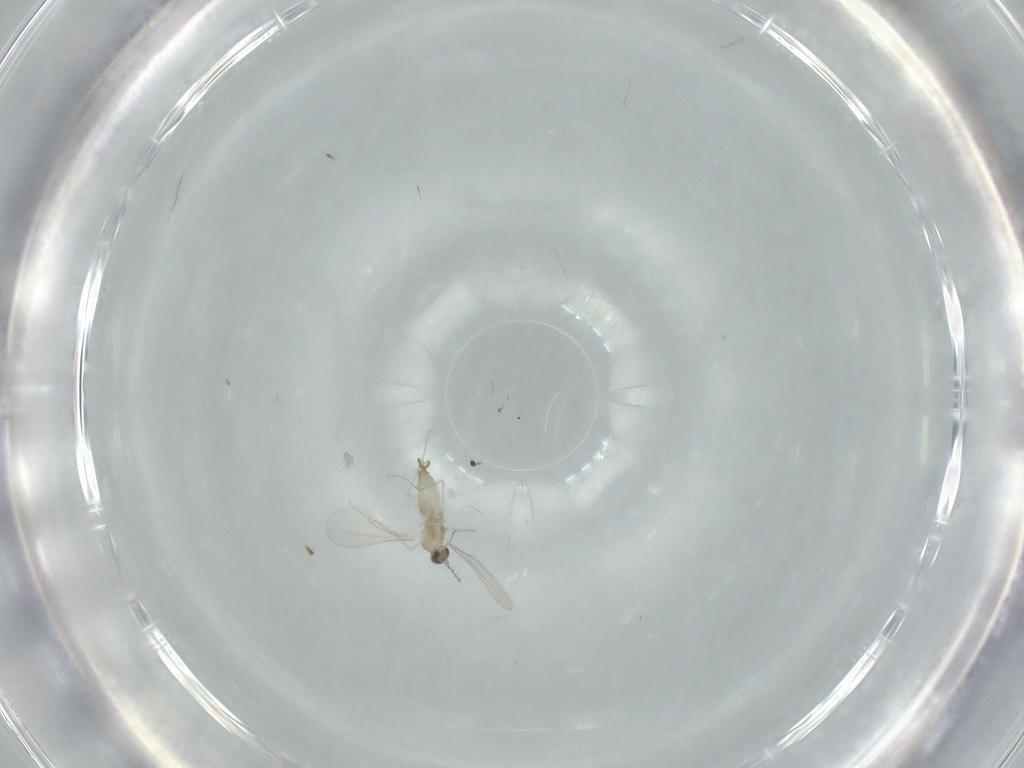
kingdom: Animalia
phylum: Arthropoda
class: Insecta
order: Diptera
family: Cecidomyiidae
